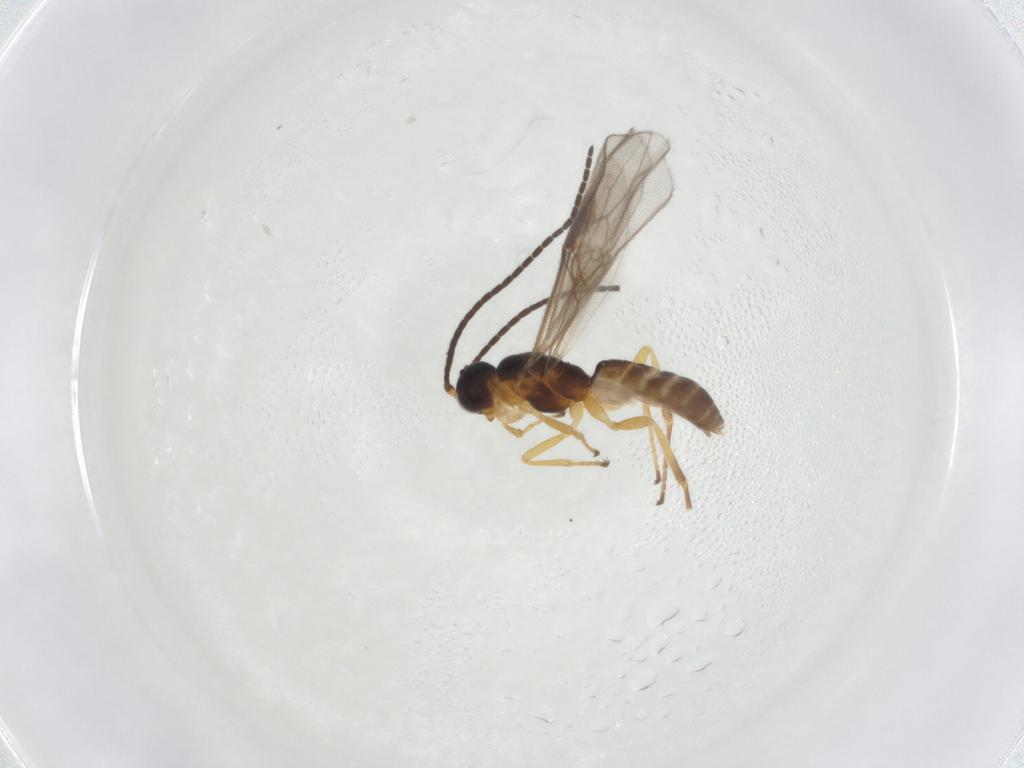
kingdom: Animalia
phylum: Arthropoda
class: Insecta
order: Hymenoptera
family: Braconidae
